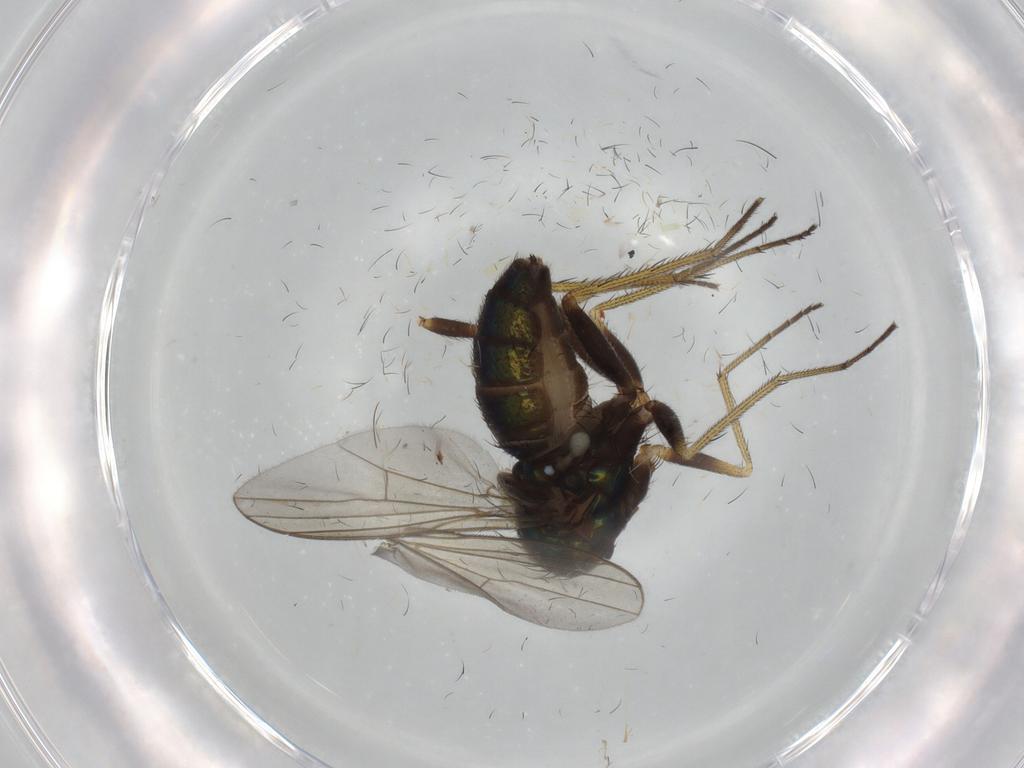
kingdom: Animalia
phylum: Arthropoda
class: Insecta
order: Diptera
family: Dolichopodidae
